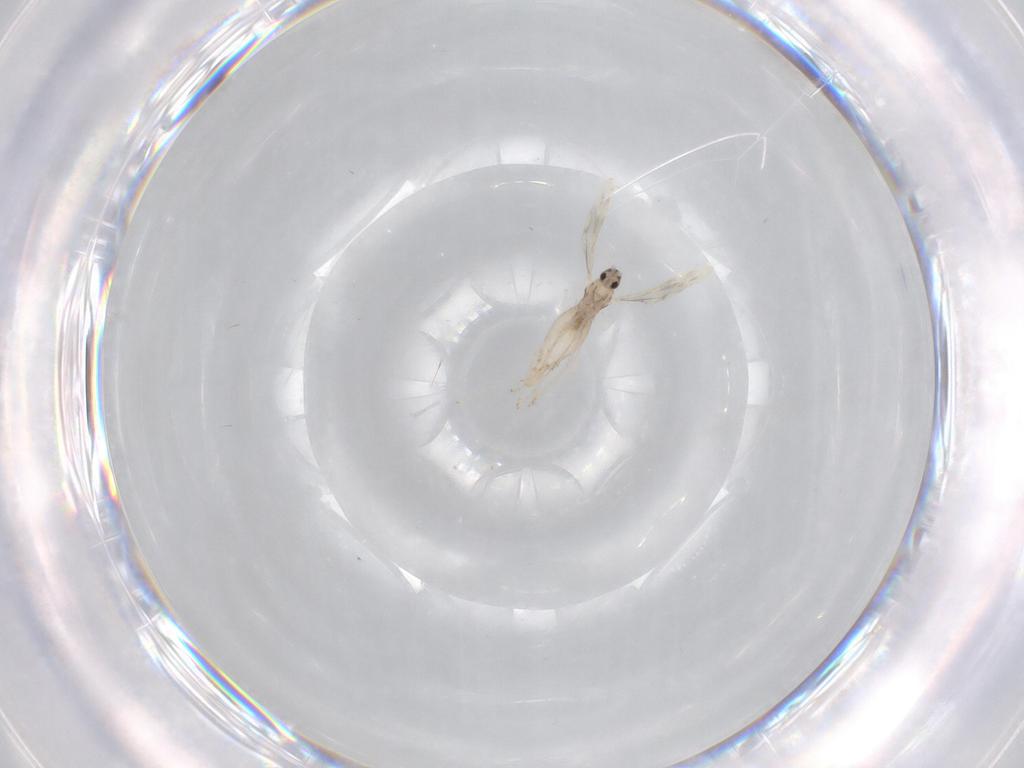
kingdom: Animalia
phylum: Arthropoda
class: Insecta
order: Diptera
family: Cecidomyiidae
